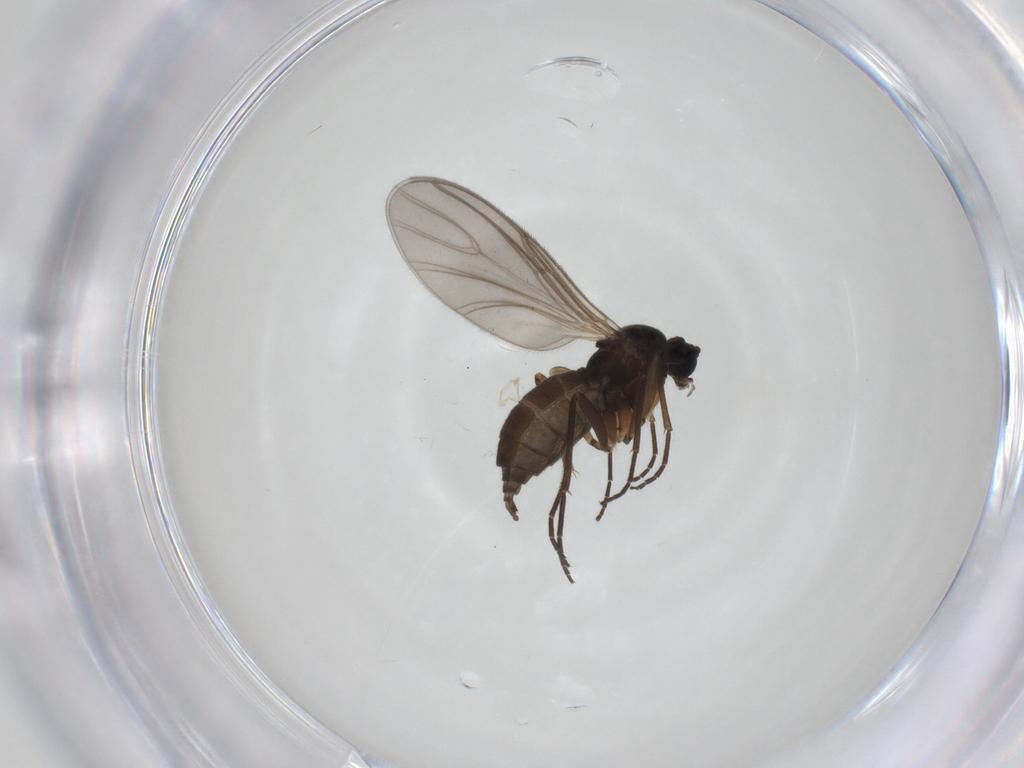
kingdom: Animalia
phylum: Arthropoda
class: Insecta
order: Diptera
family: Sciaridae
